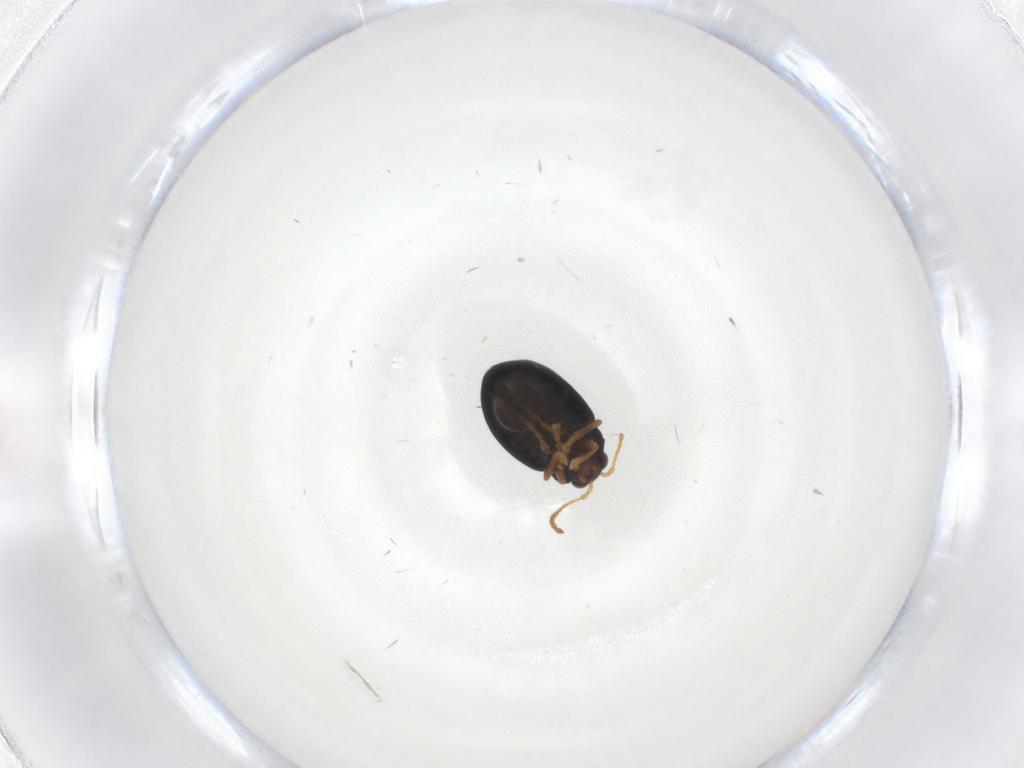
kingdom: Animalia
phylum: Arthropoda
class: Insecta
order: Coleoptera
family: Chrysomelidae
